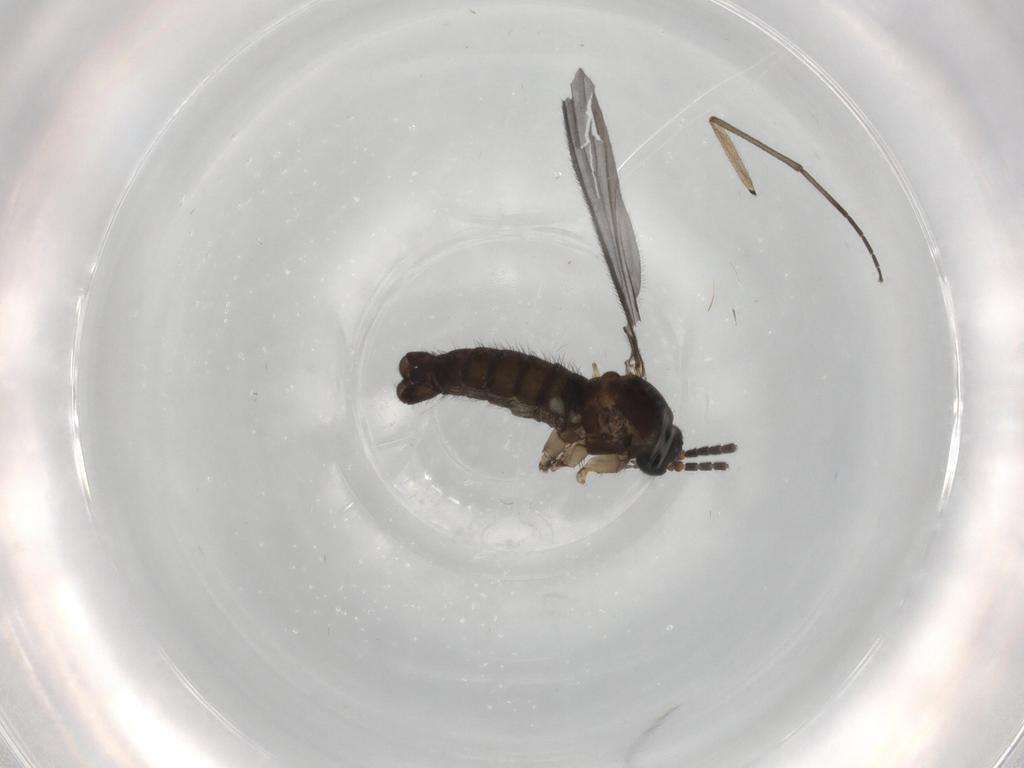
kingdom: Animalia
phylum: Arthropoda
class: Insecta
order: Diptera
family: Sciaridae
